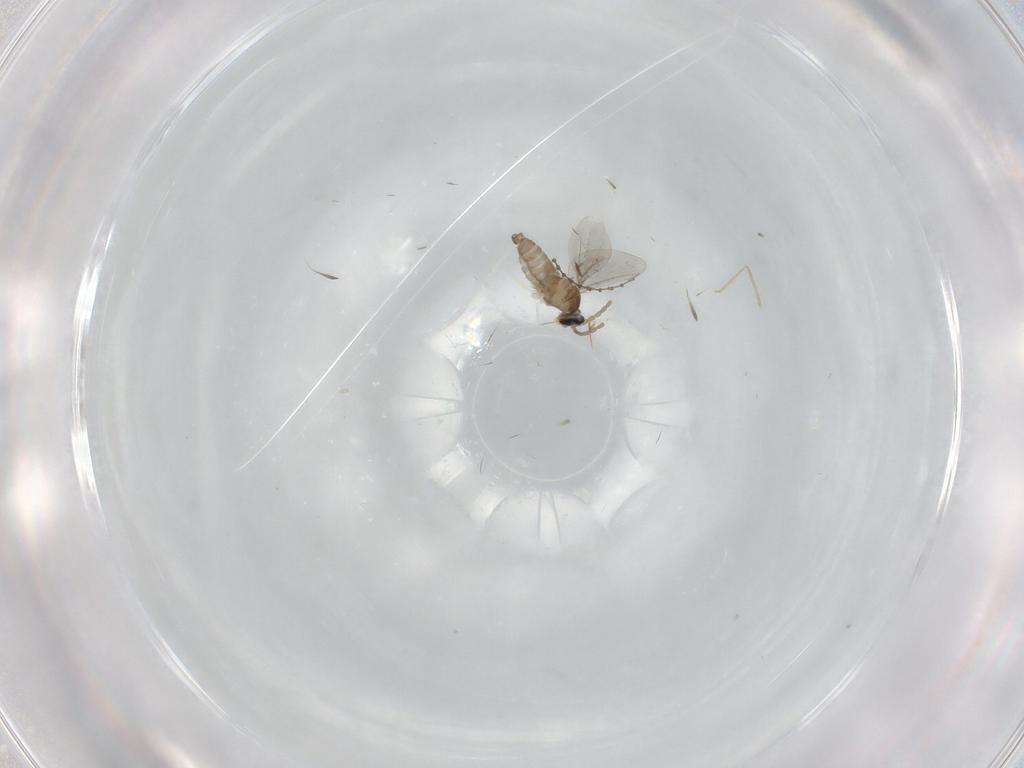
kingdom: Animalia
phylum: Arthropoda
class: Insecta
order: Diptera
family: Cecidomyiidae
